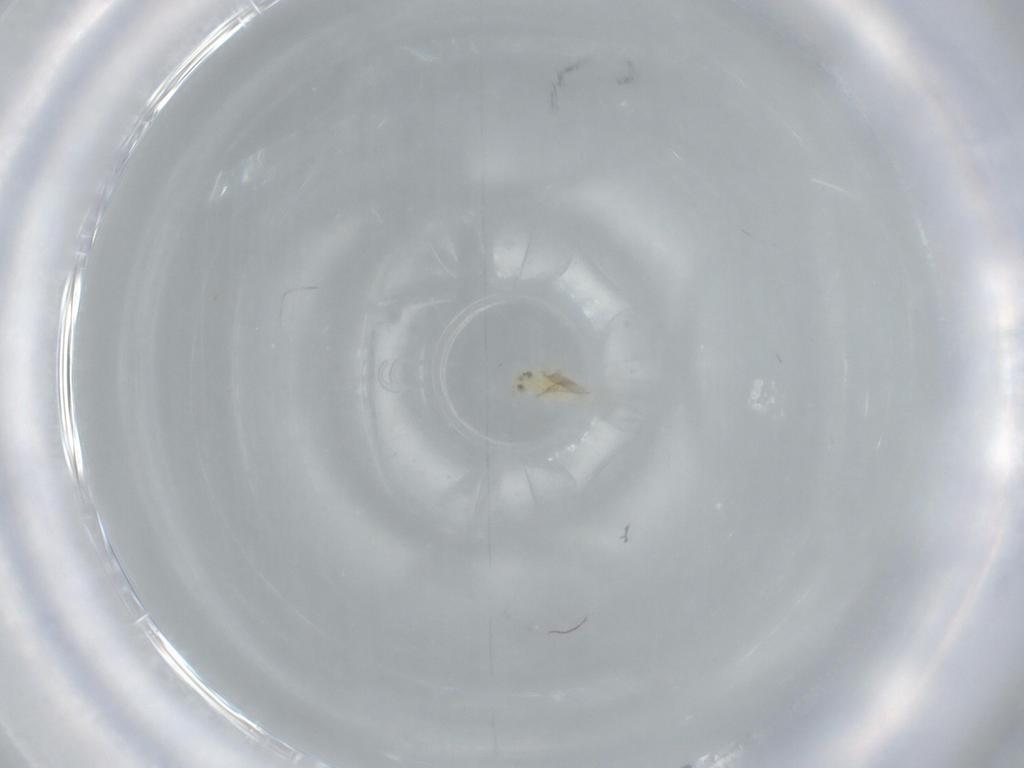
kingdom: Animalia
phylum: Arthropoda
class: Insecta
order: Hymenoptera
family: Aphelinidae
